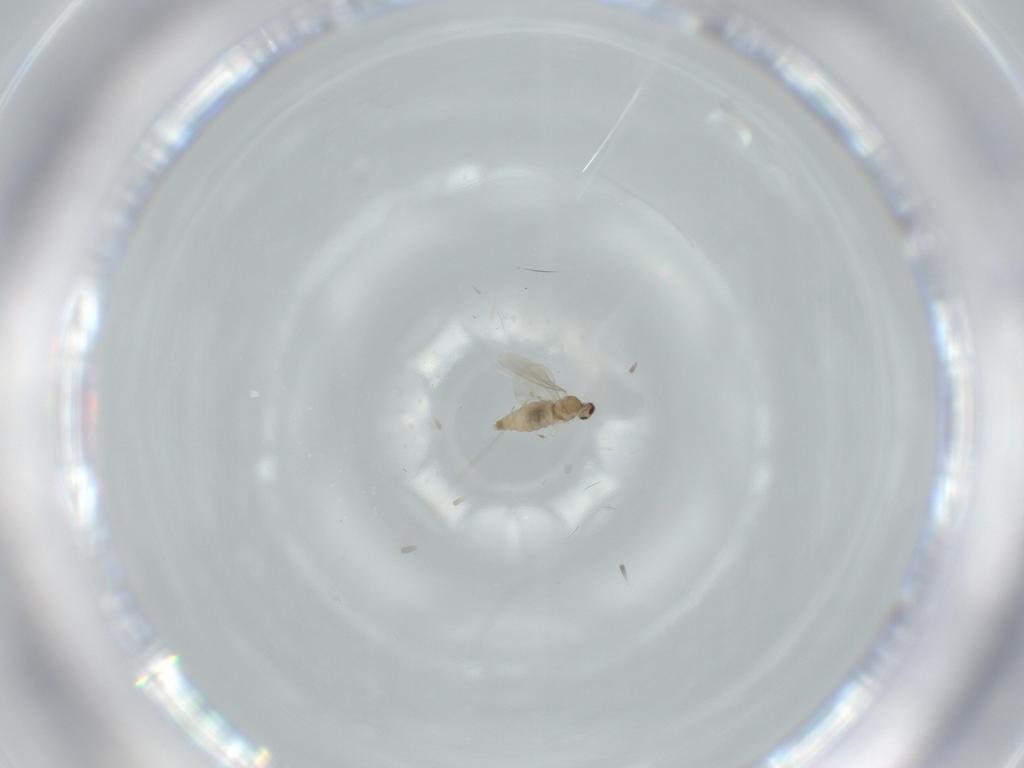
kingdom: Animalia
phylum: Arthropoda
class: Insecta
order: Diptera
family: Cecidomyiidae
